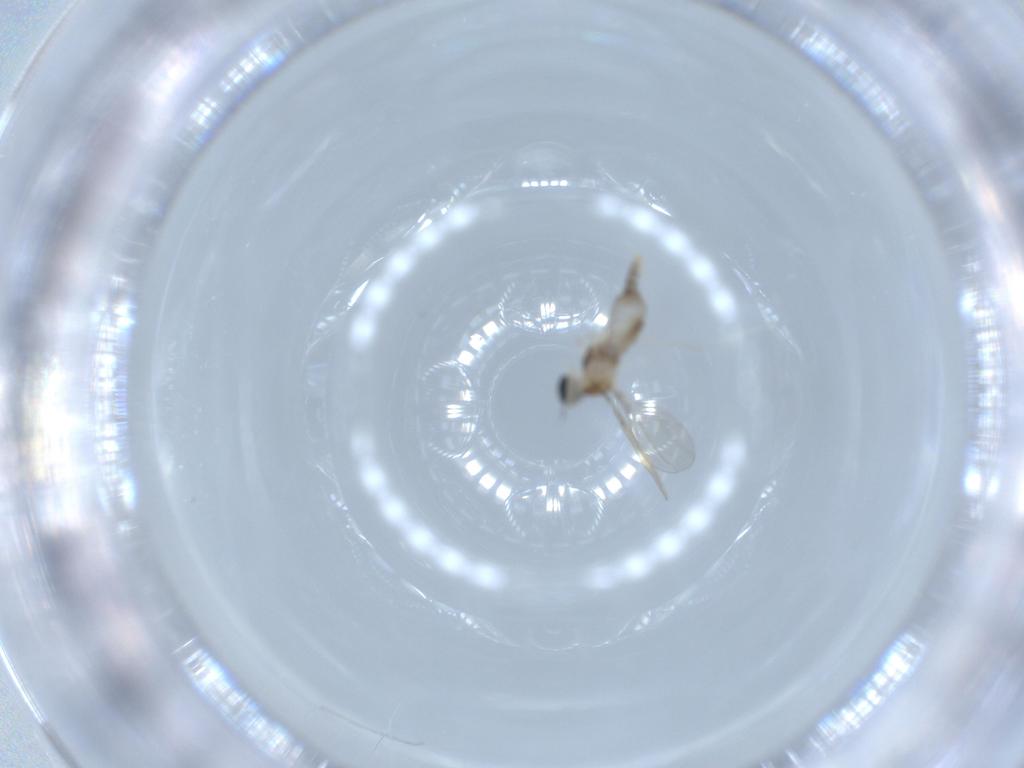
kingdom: Animalia
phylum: Arthropoda
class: Insecta
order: Diptera
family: Cecidomyiidae
